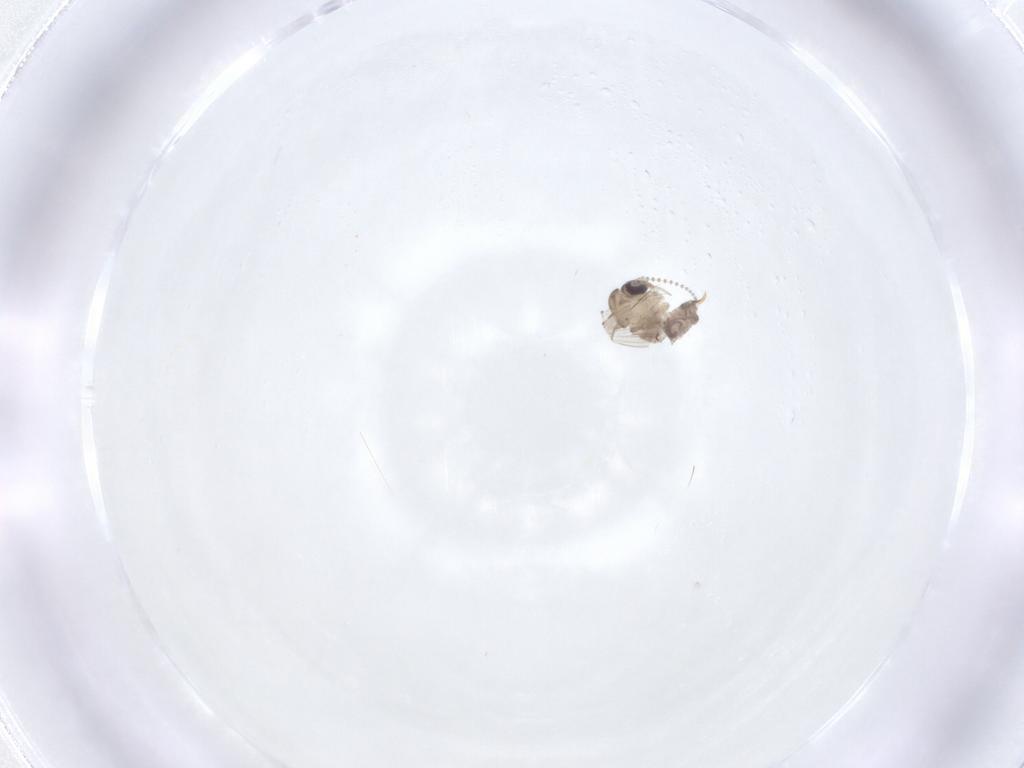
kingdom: Animalia
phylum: Arthropoda
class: Insecta
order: Diptera
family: Psychodidae
